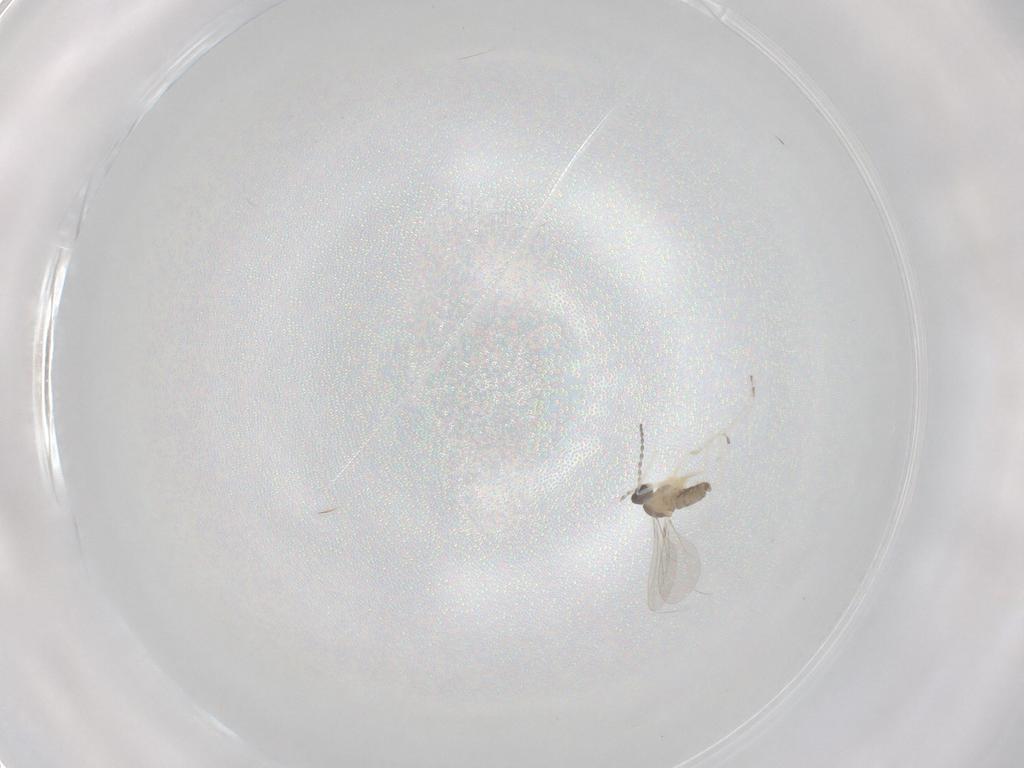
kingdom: Animalia
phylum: Arthropoda
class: Insecta
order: Diptera
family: Cecidomyiidae
